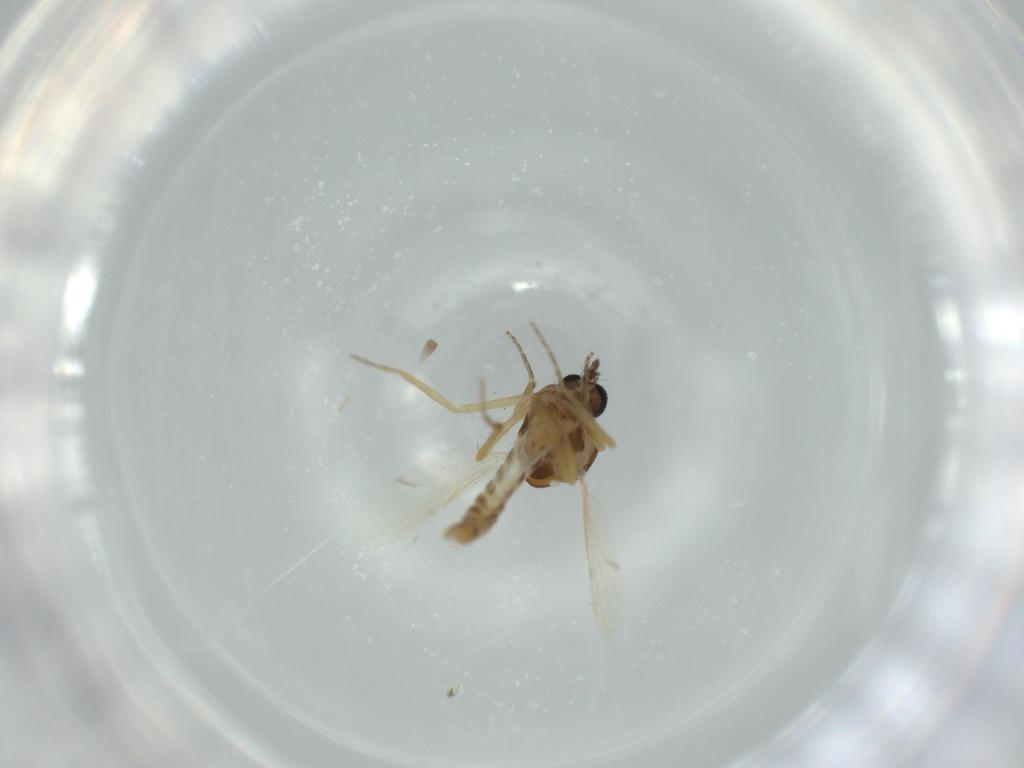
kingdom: Animalia
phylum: Arthropoda
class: Insecta
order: Diptera
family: Ceratopogonidae
